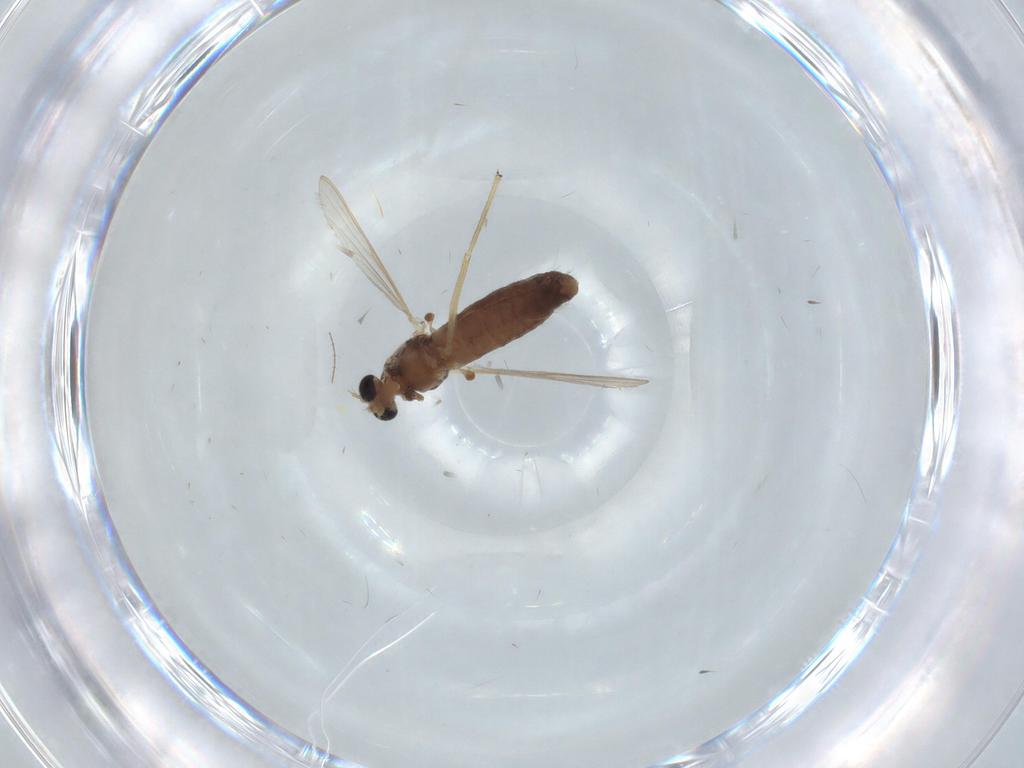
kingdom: Animalia
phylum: Arthropoda
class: Insecta
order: Diptera
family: Chironomidae
